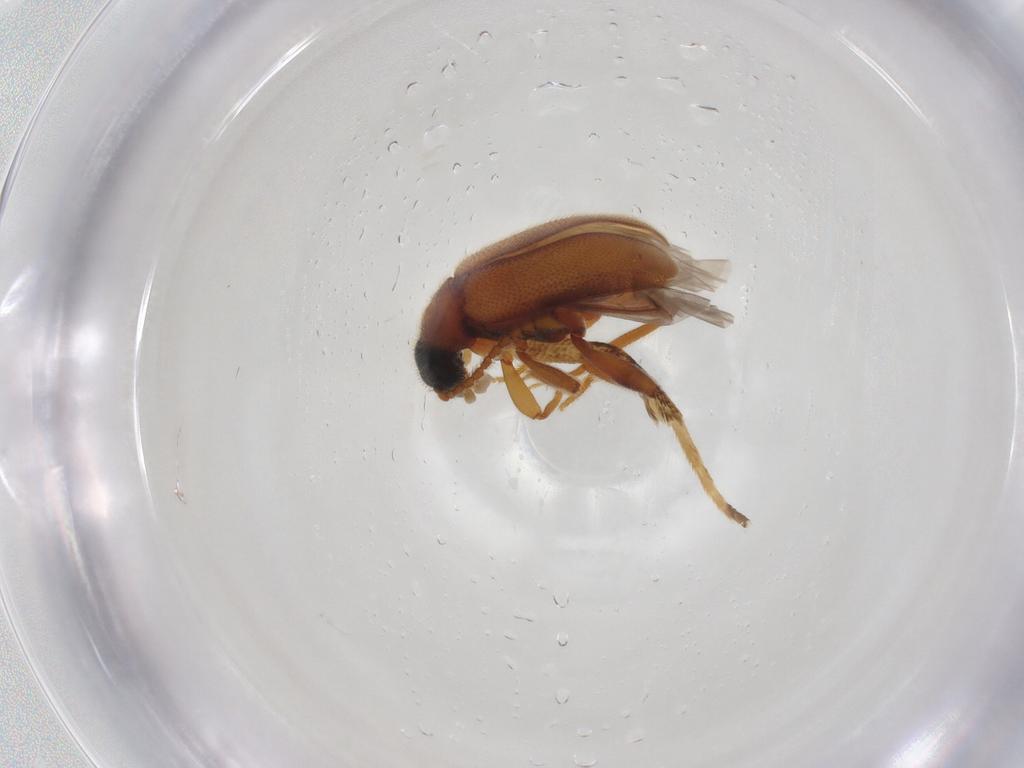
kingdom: Animalia
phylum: Arthropoda
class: Insecta
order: Coleoptera
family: Aderidae
